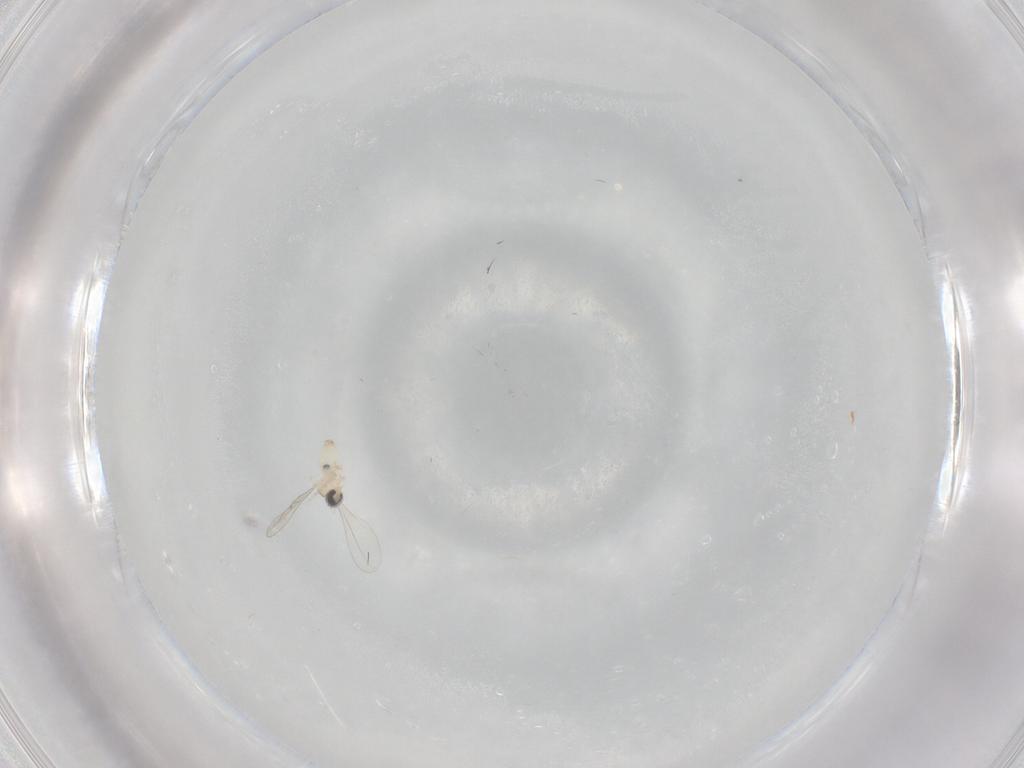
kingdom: Animalia
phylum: Arthropoda
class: Insecta
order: Diptera
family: Cecidomyiidae
